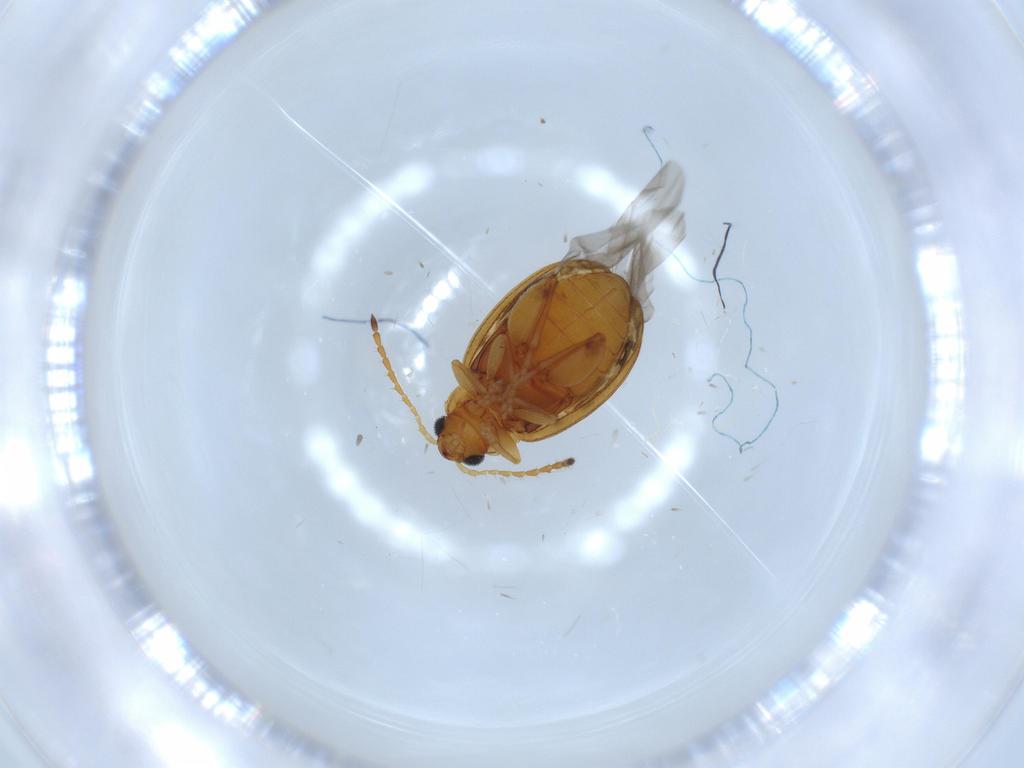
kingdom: Animalia
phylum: Arthropoda
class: Insecta
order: Coleoptera
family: Chrysomelidae
